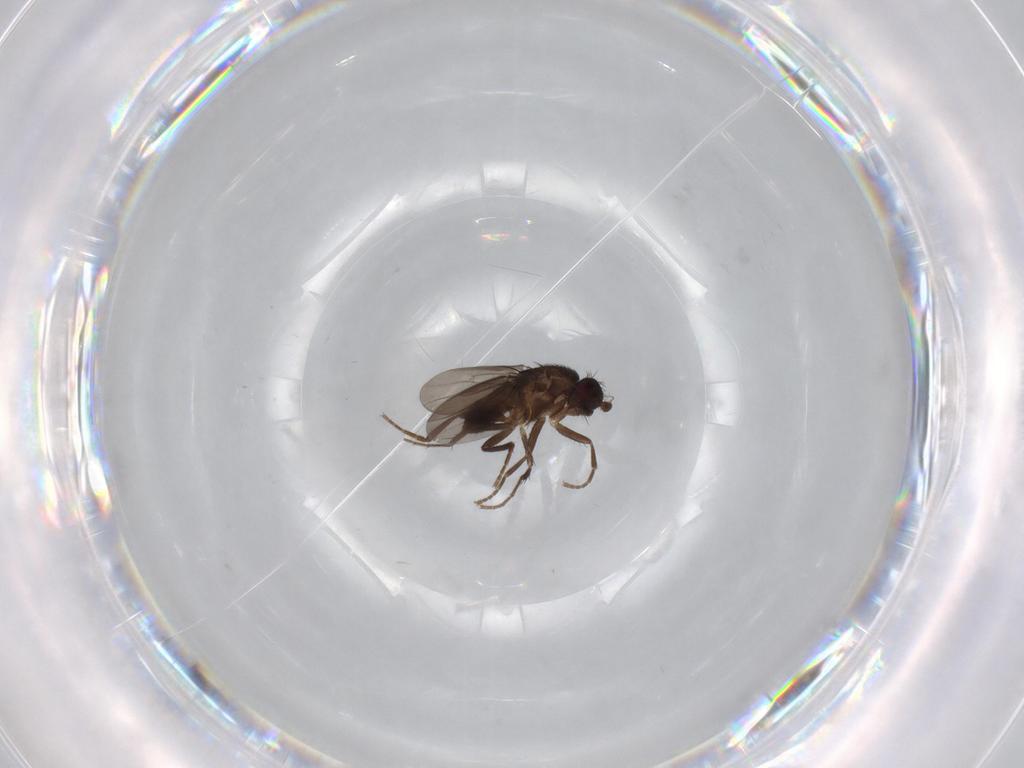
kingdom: Animalia
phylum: Arthropoda
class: Insecta
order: Diptera
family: Sphaeroceridae
